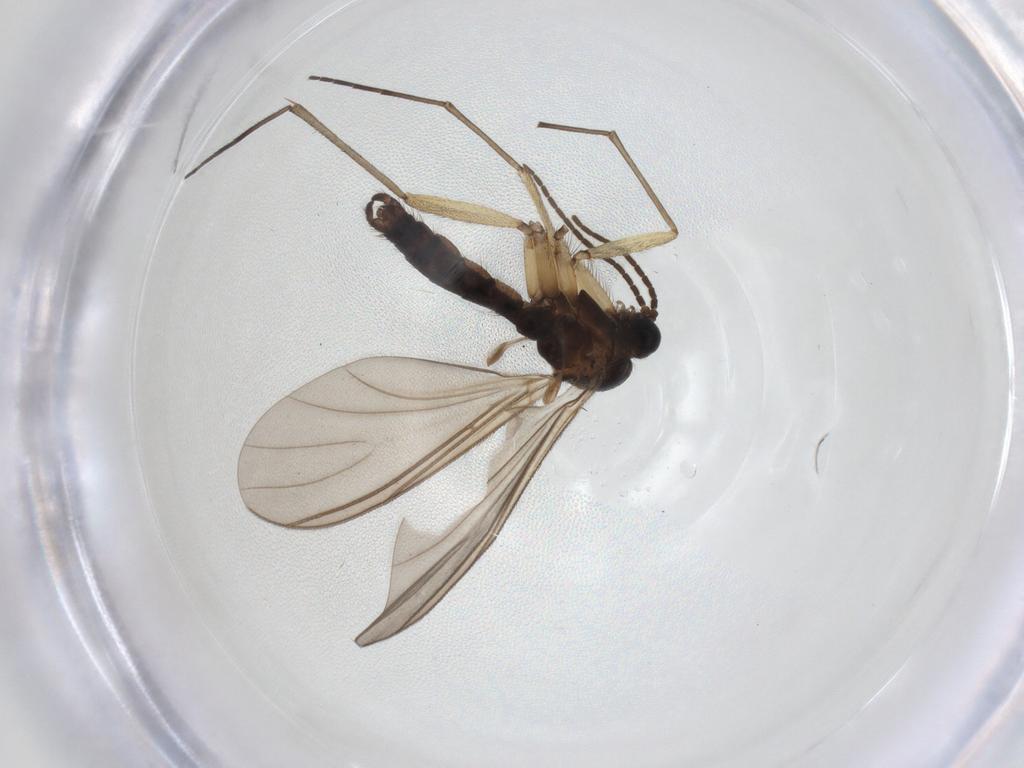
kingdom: Animalia
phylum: Arthropoda
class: Insecta
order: Diptera
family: Sciaridae
